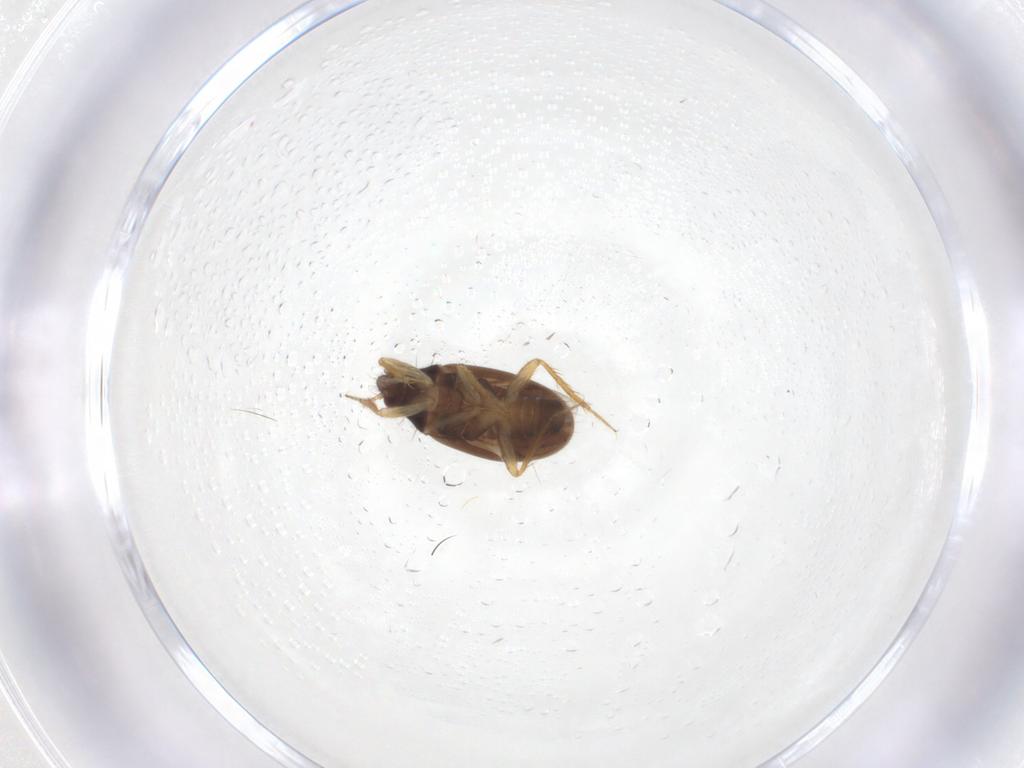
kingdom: Animalia
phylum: Arthropoda
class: Insecta
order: Hemiptera
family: Ceratocombidae
